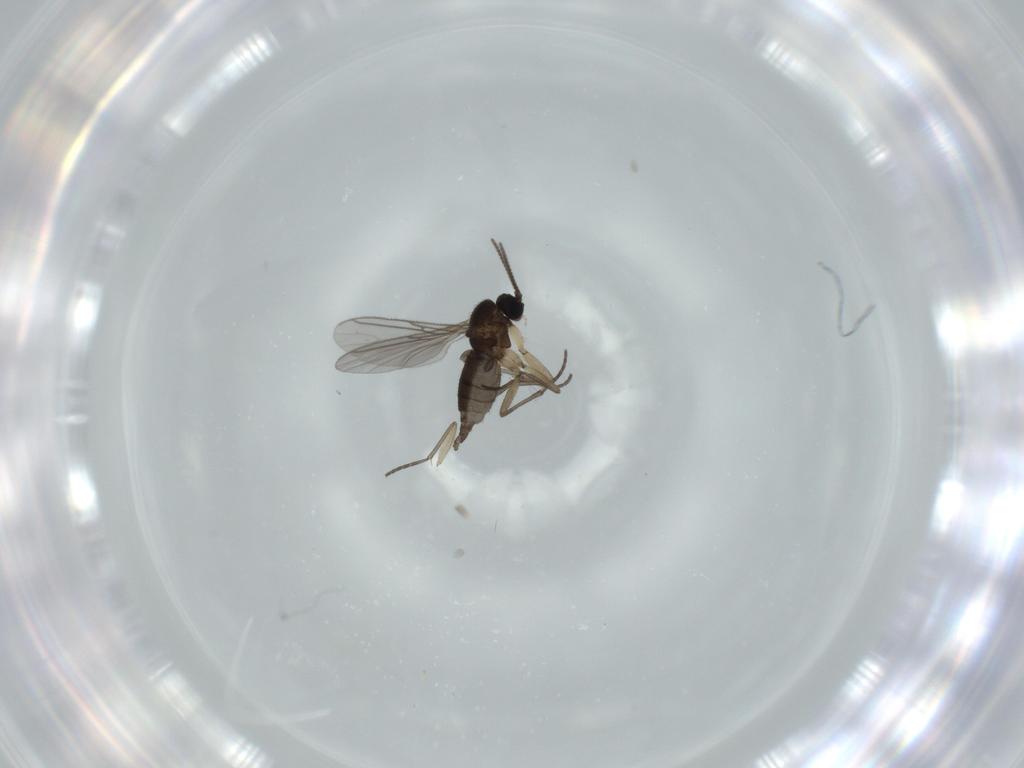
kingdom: Animalia
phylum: Arthropoda
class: Insecta
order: Diptera
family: Sciaridae
